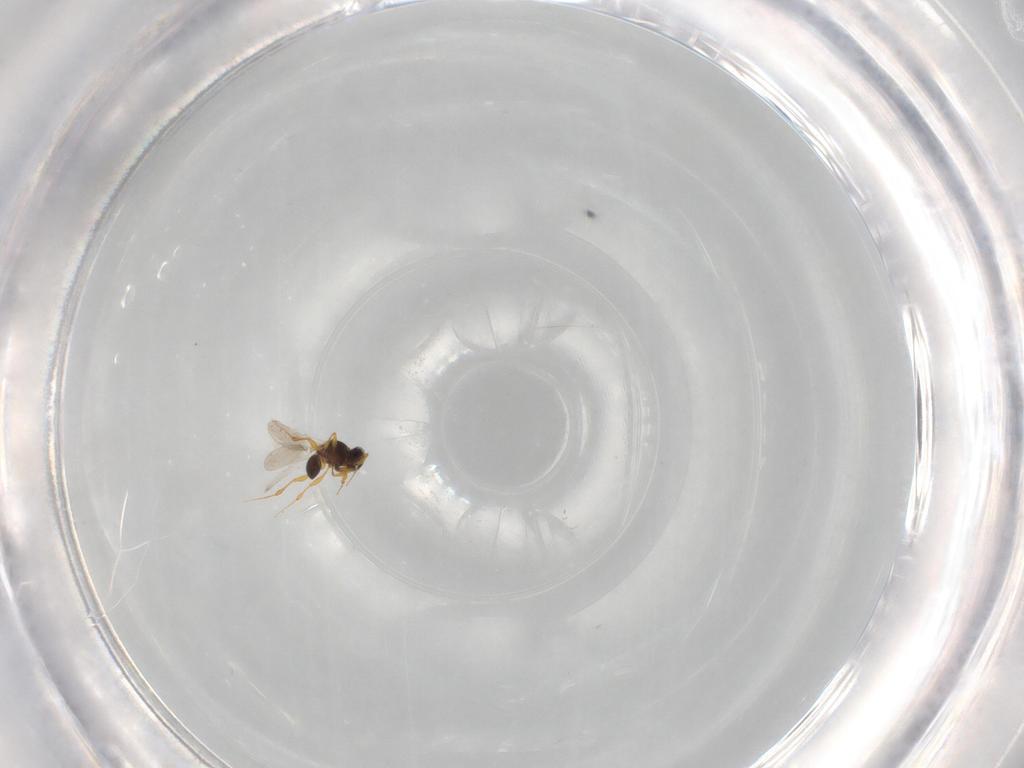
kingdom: Animalia
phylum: Arthropoda
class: Insecta
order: Hymenoptera
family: Platygastridae
